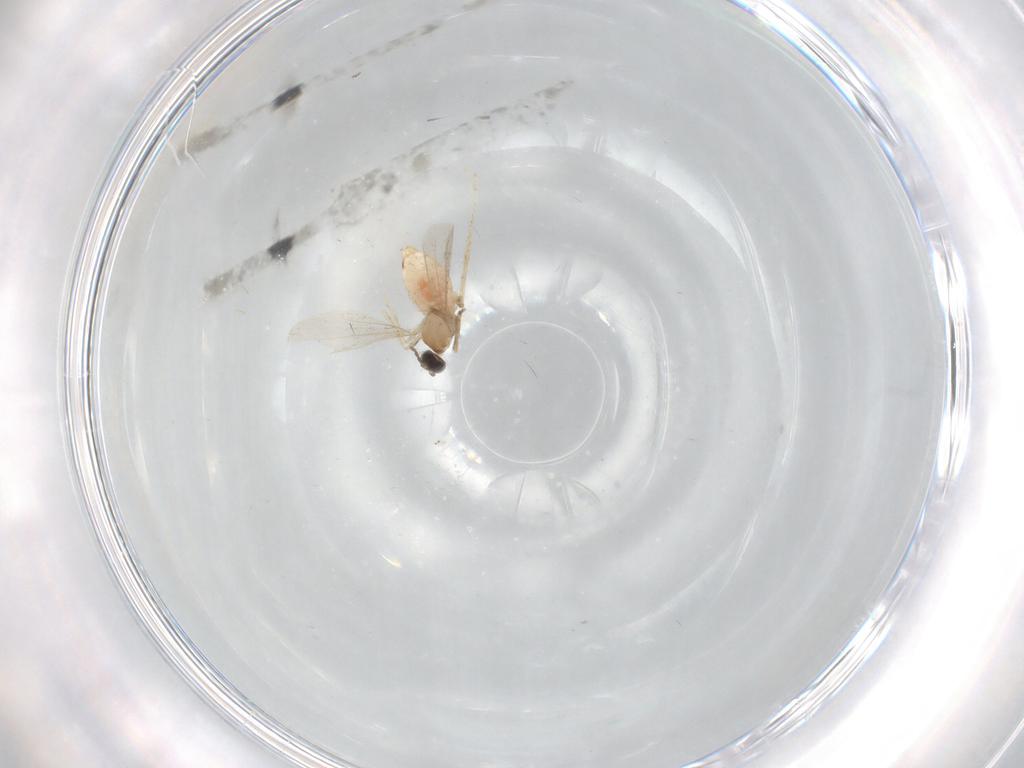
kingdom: Animalia
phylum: Arthropoda
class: Insecta
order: Diptera
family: Cecidomyiidae
